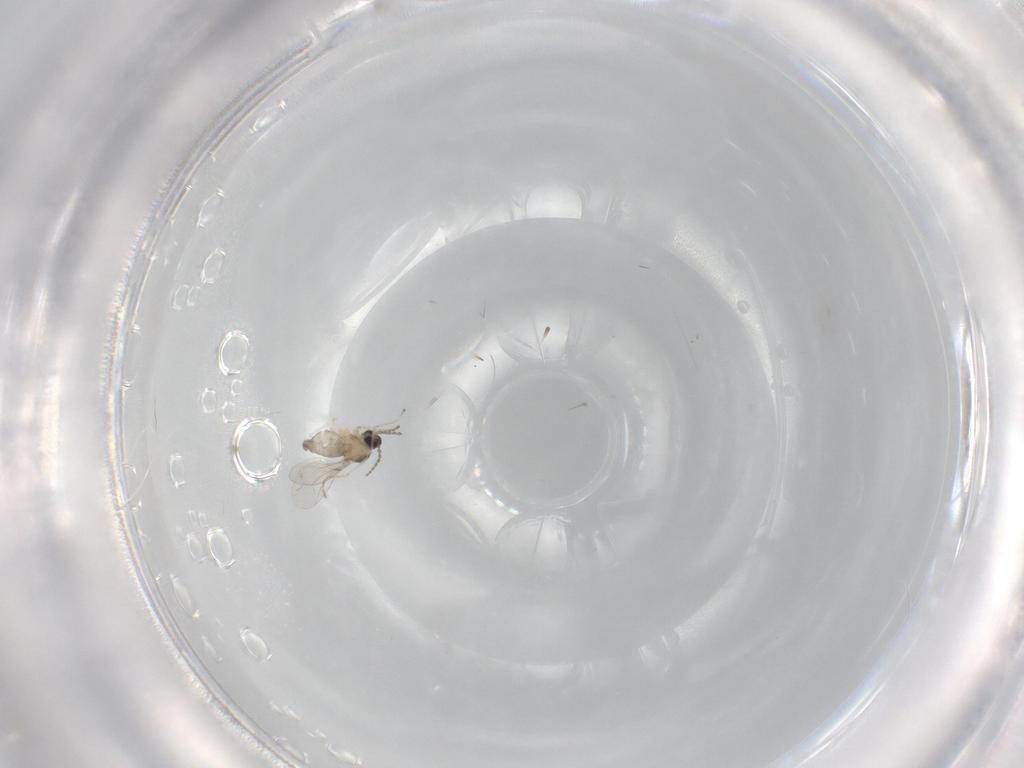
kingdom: Animalia
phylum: Arthropoda
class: Insecta
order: Diptera
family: Cecidomyiidae
